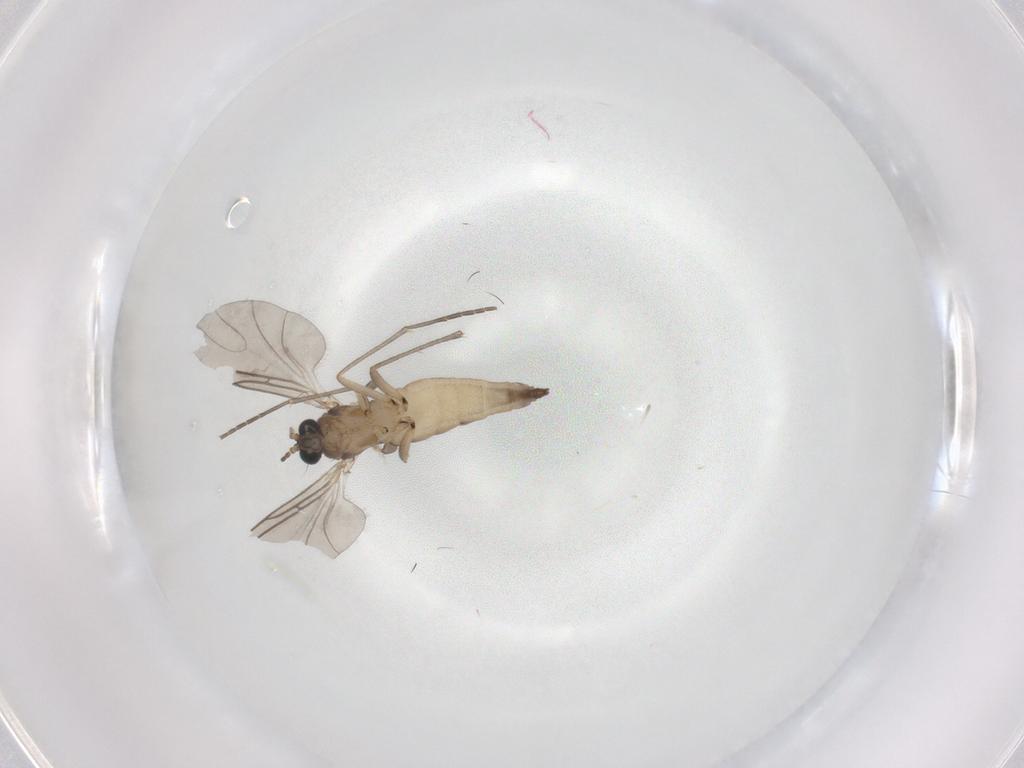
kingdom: Animalia
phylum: Arthropoda
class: Insecta
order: Diptera
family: Sciaridae
